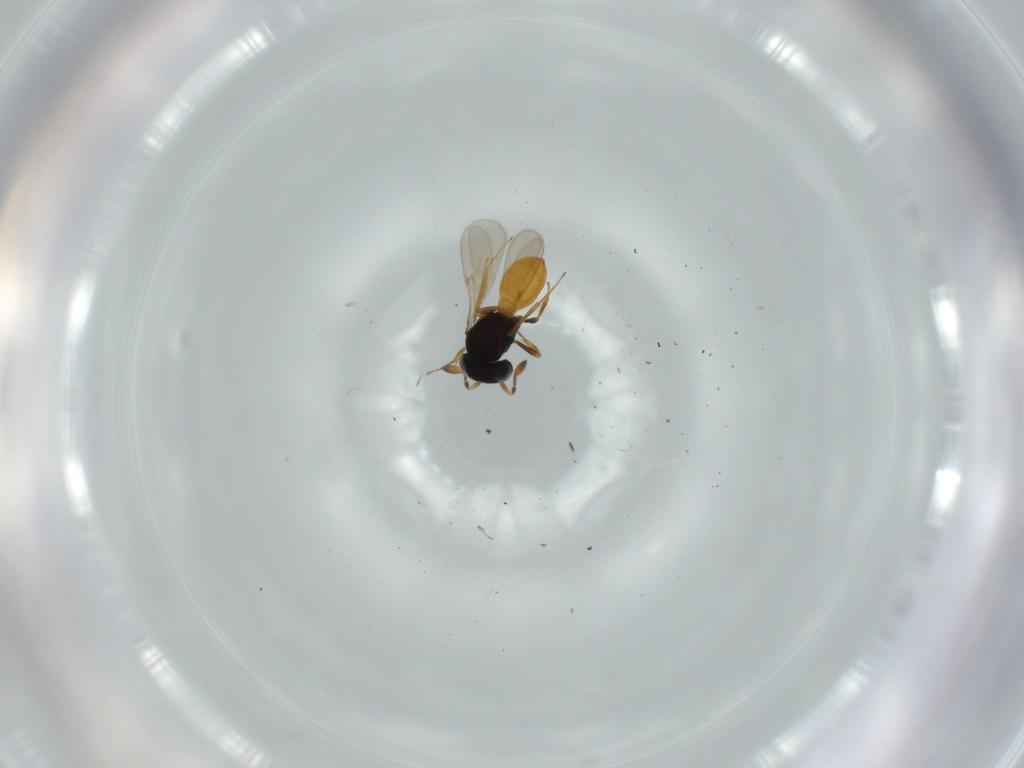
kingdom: Animalia
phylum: Arthropoda
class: Insecta
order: Hymenoptera
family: Scelionidae
